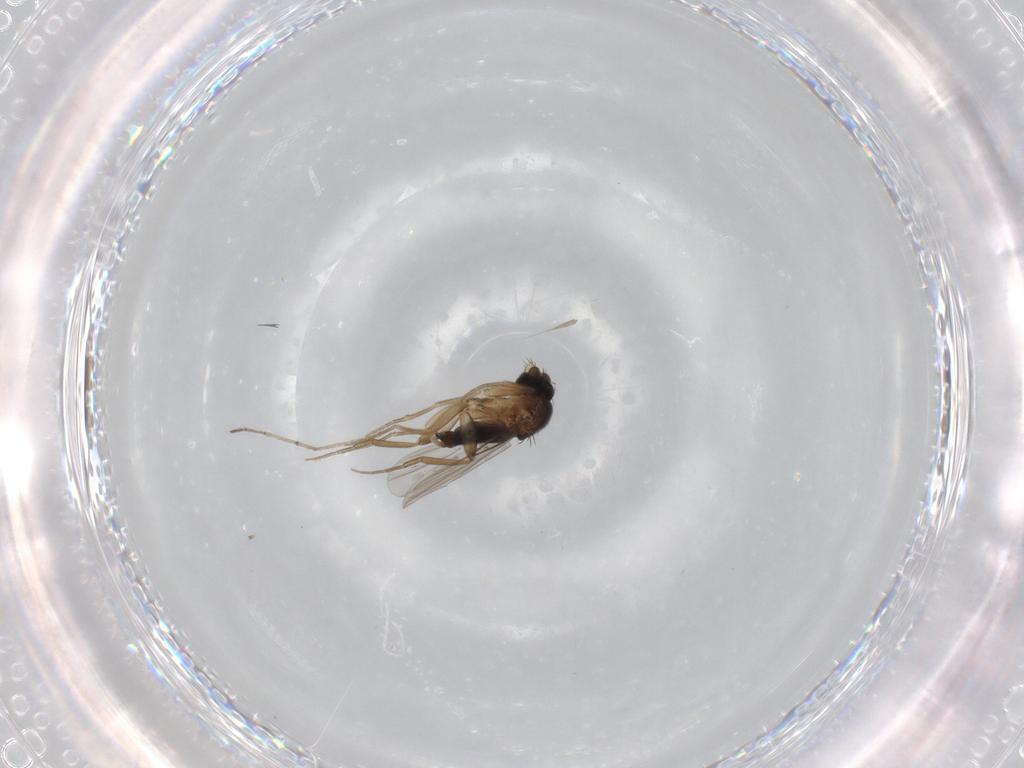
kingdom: Animalia
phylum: Arthropoda
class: Insecta
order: Diptera
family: Phoridae
